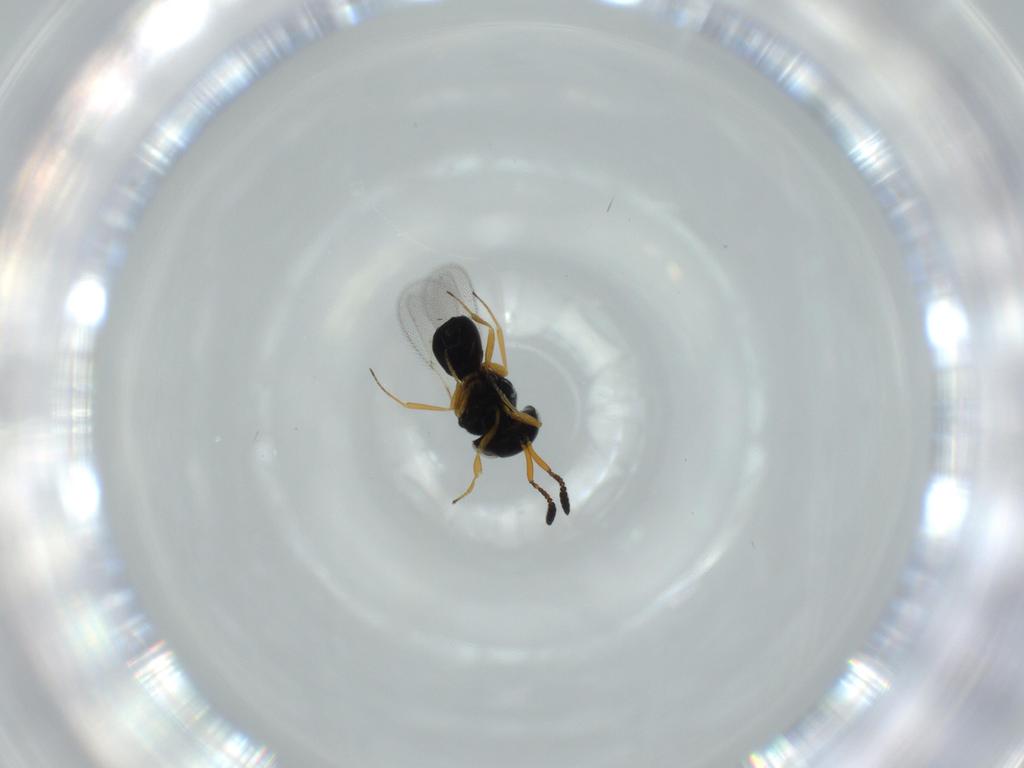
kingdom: Animalia
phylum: Arthropoda
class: Insecta
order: Hymenoptera
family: Scelionidae
